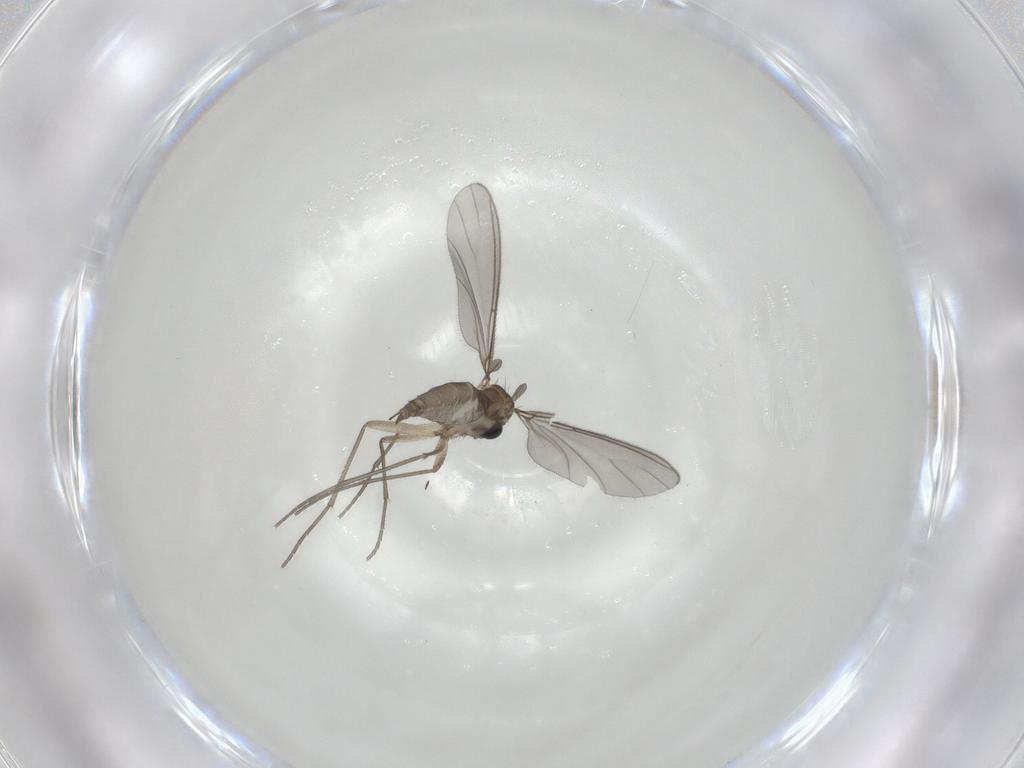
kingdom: Animalia
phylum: Arthropoda
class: Insecta
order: Diptera
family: Sciaridae
